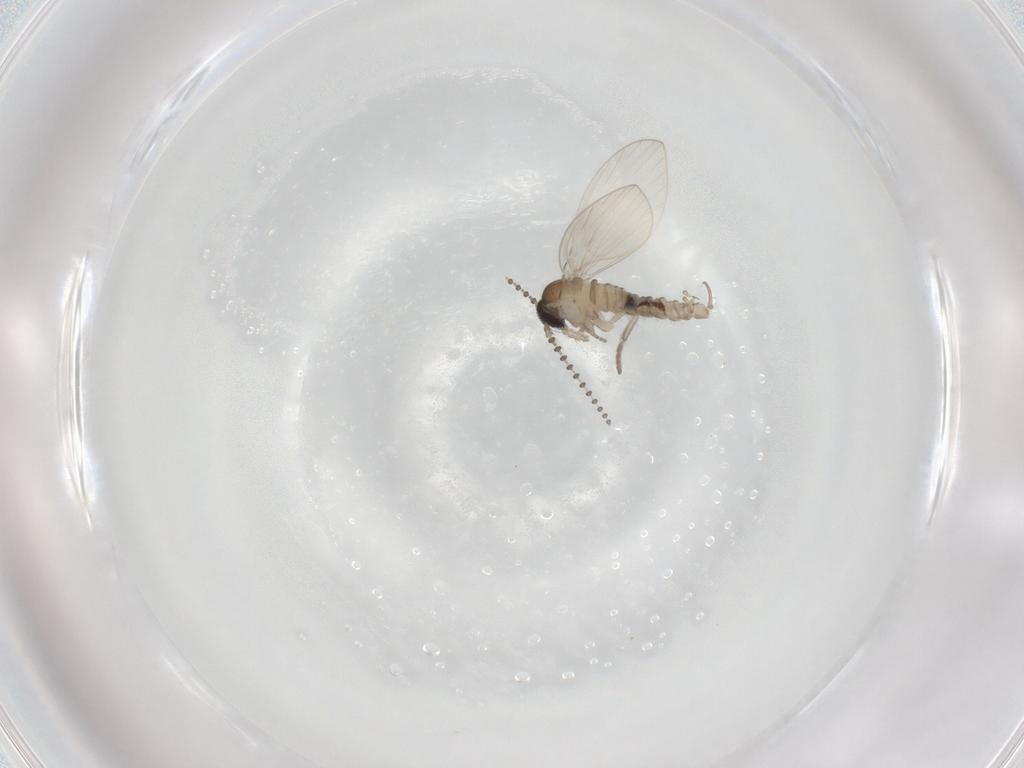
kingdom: Animalia
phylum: Arthropoda
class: Insecta
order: Diptera
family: Psychodidae
